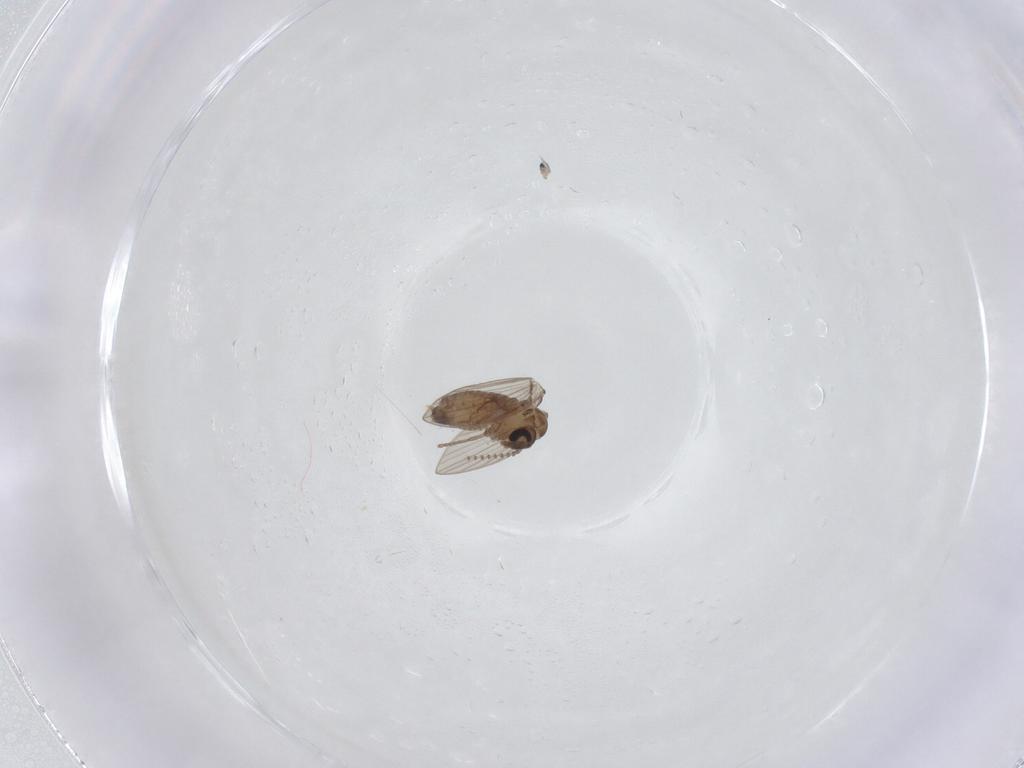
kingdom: Animalia
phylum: Arthropoda
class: Insecta
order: Diptera
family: Psychodidae
